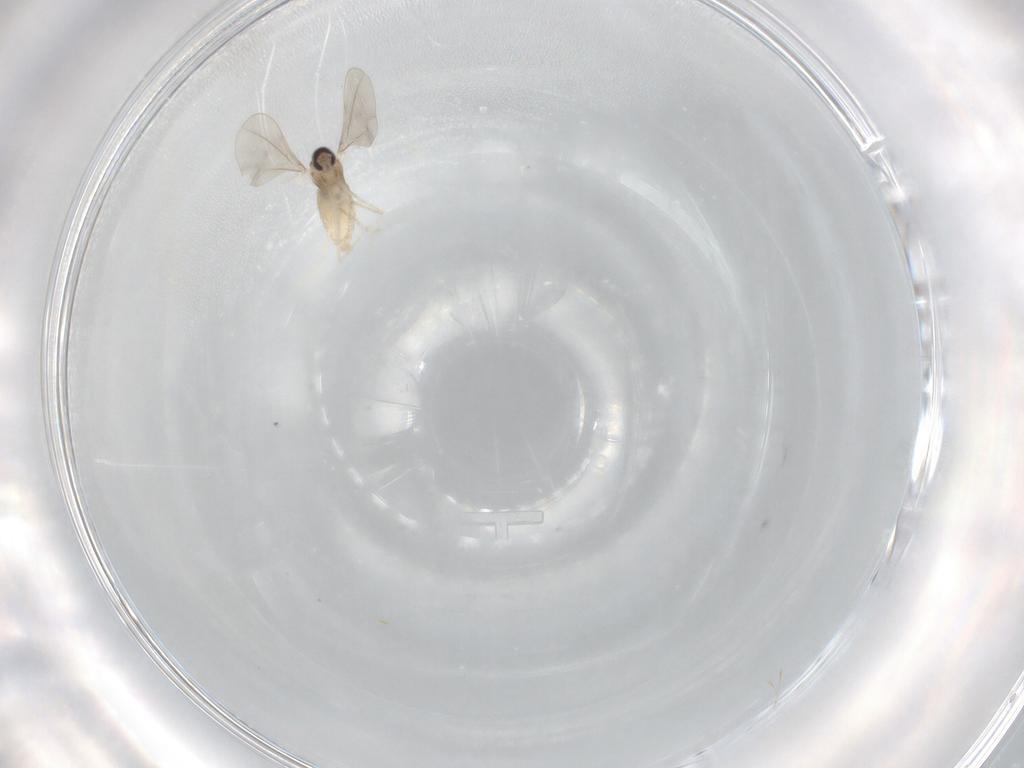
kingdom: Animalia
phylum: Arthropoda
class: Insecta
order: Diptera
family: Cecidomyiidae
